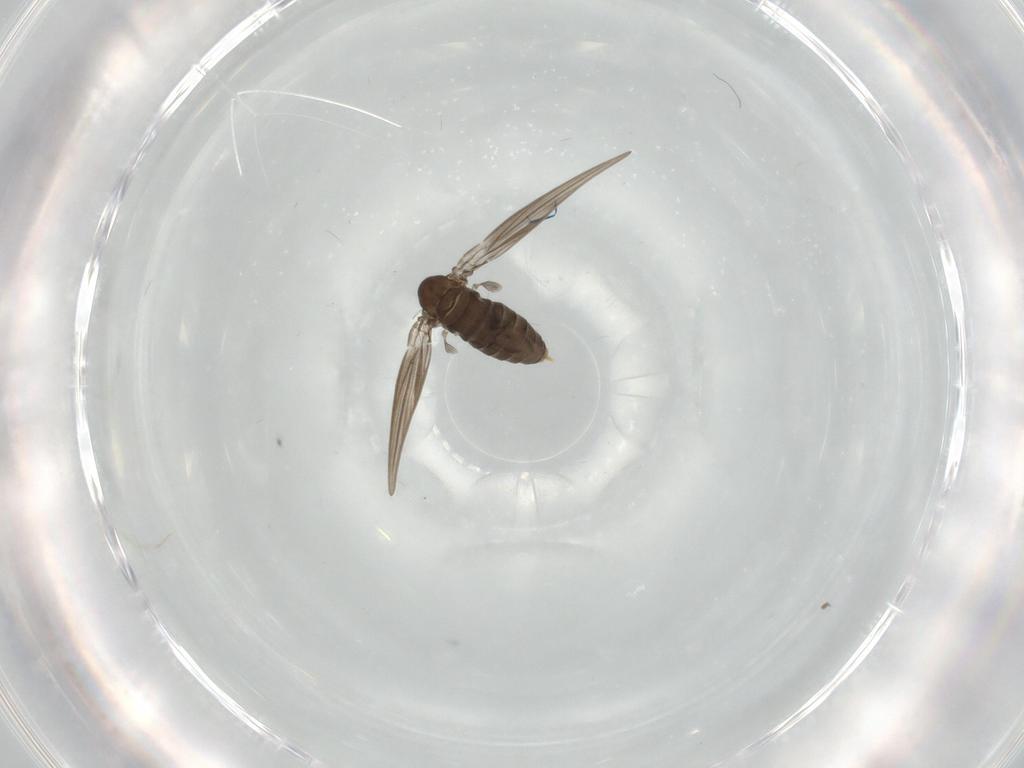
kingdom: Animalia
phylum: Arthropoda
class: Insecta
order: Diptera
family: Psychodidae
